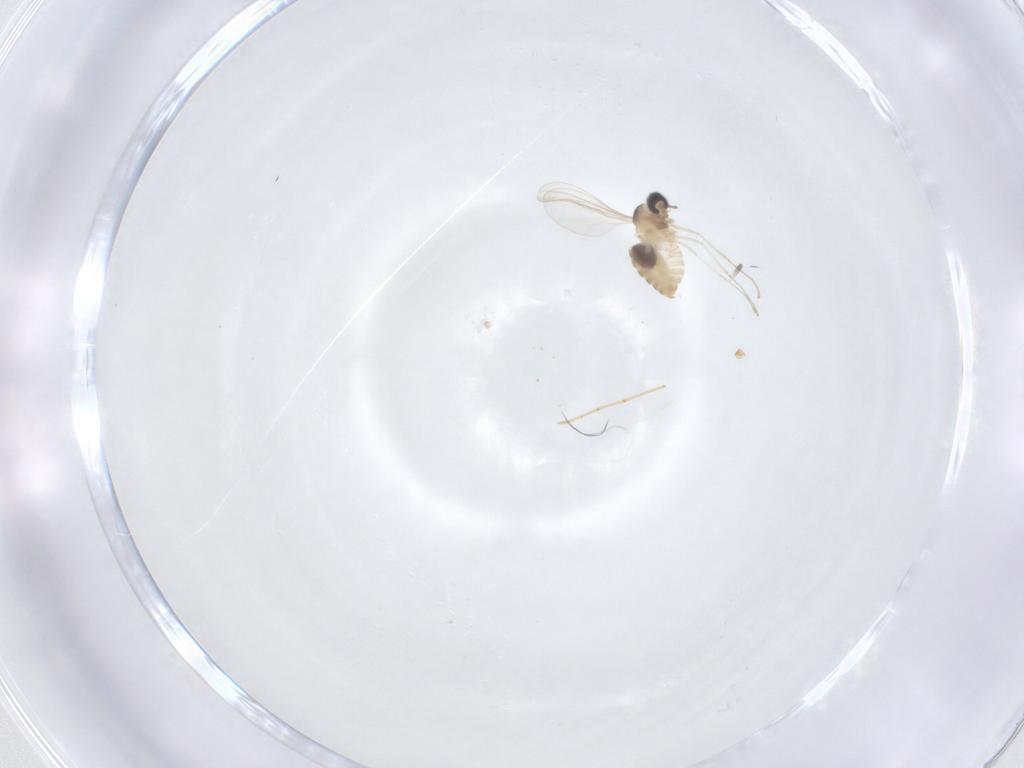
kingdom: Animalia
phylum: Arthropoda
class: Insecta
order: Diptera
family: Cecidomyiidae
